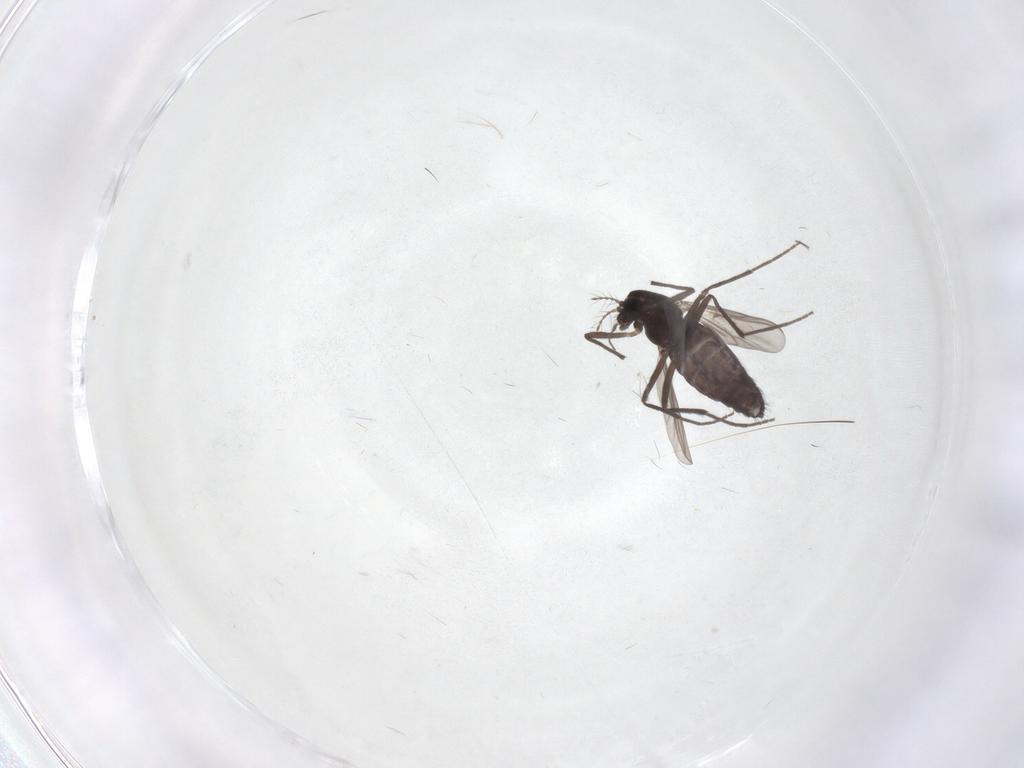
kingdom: Animalia
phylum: Arthropoda
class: Insecta
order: Diptera
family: Chironomidae
